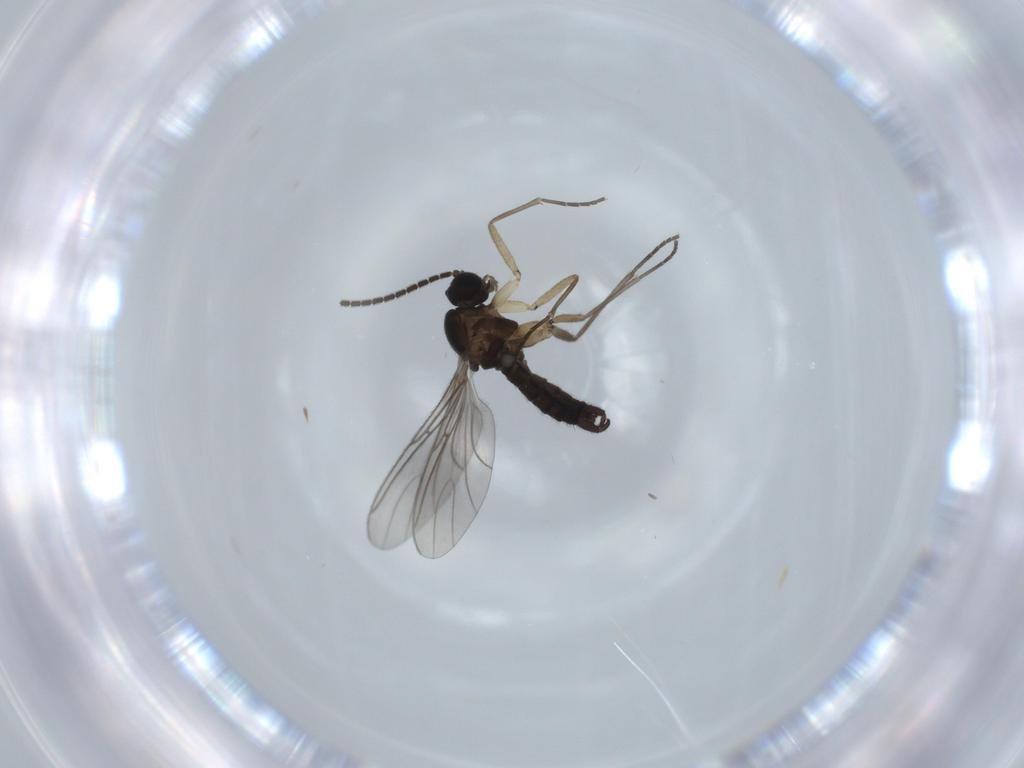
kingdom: Animalia
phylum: Arthropoda
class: Insecta
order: Diptera
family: Sciaridae
